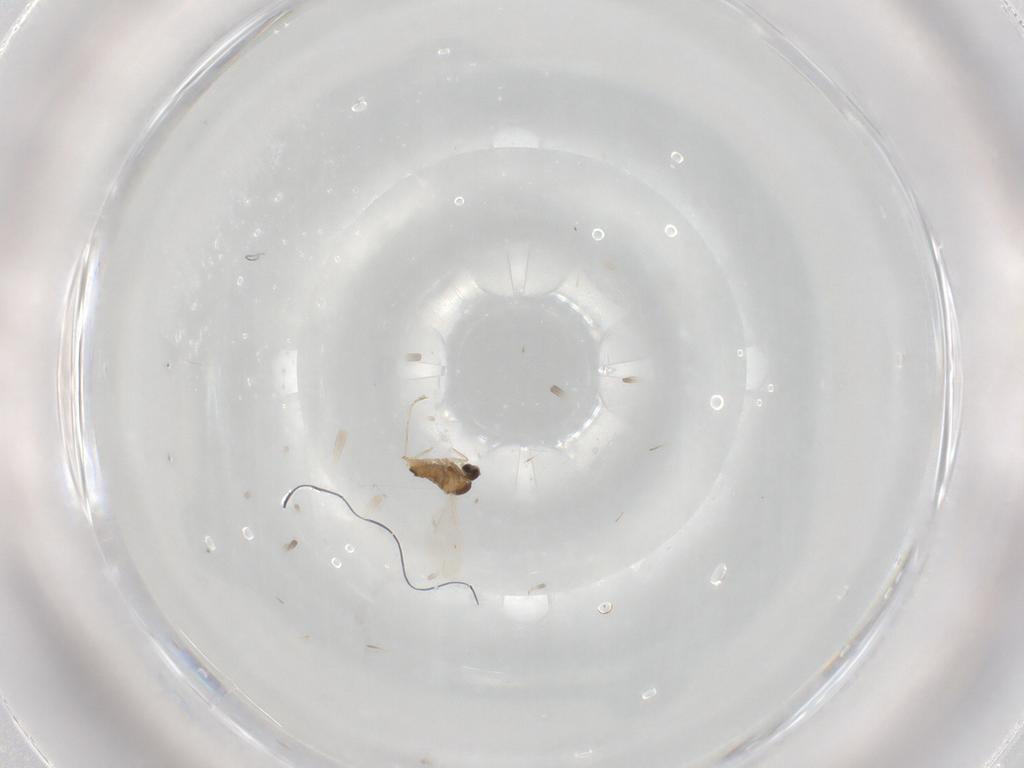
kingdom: Animalia
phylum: Arthropoda
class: Insecta
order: Diptera
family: Cecidomyiidae
